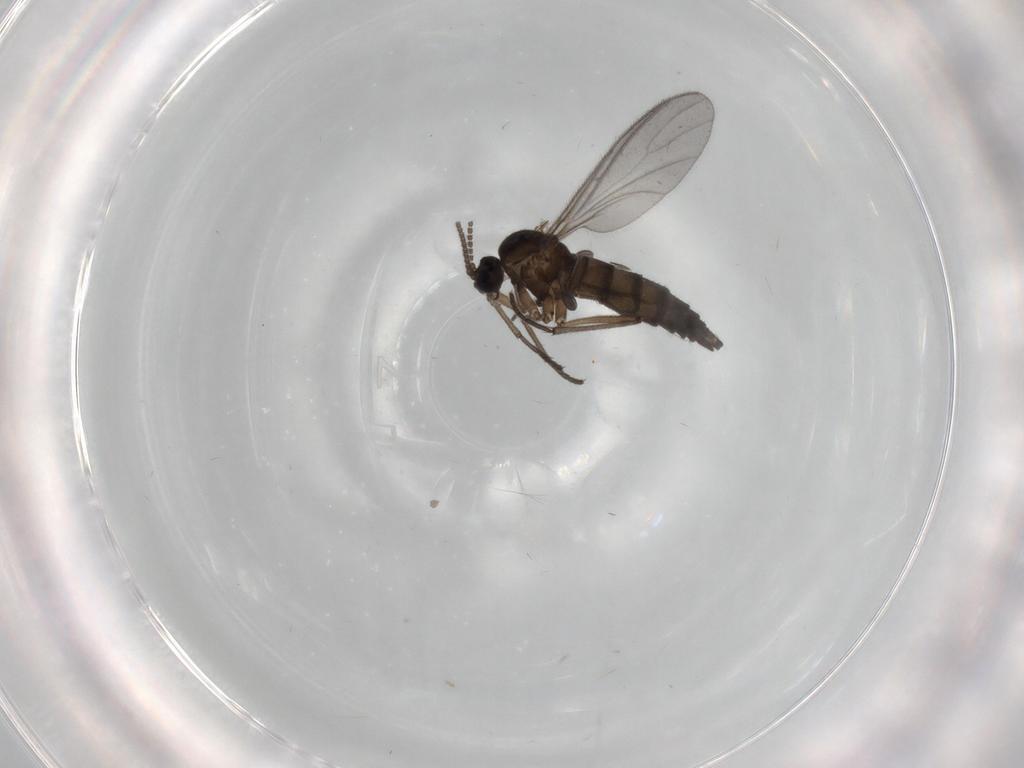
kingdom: Animalia
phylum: Arthropoda
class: Insecta
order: Diptera
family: Sciaridae
